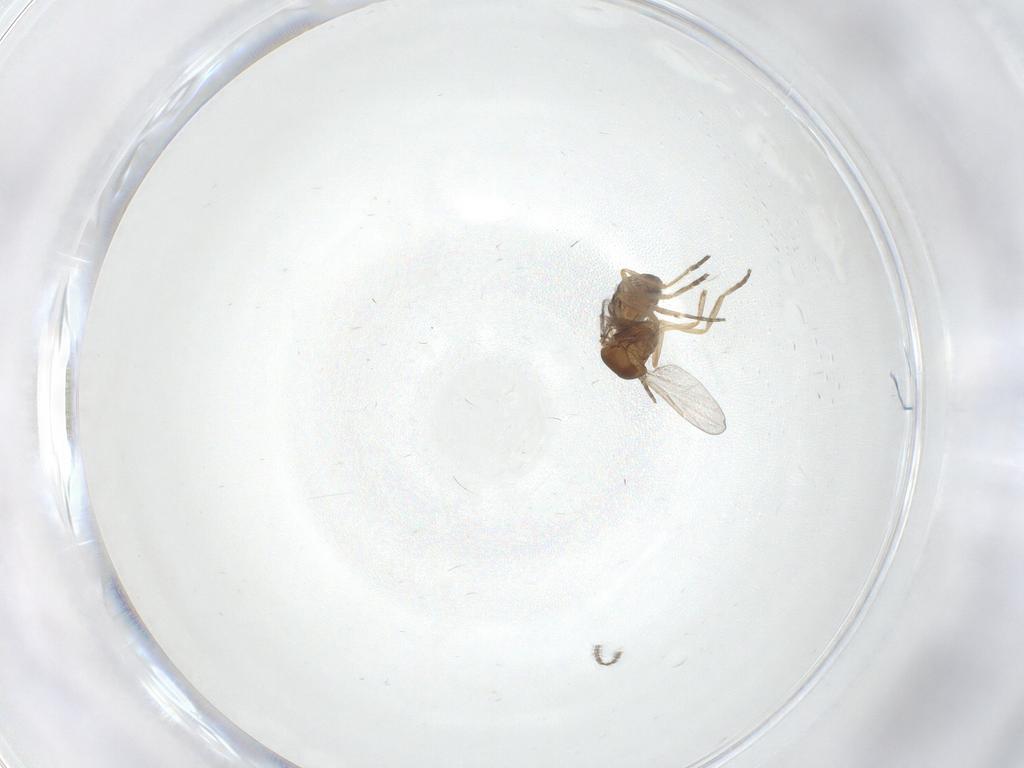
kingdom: Animalia
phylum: Arthropoda
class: Insecta
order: Diptera
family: Ceratopogonidae
